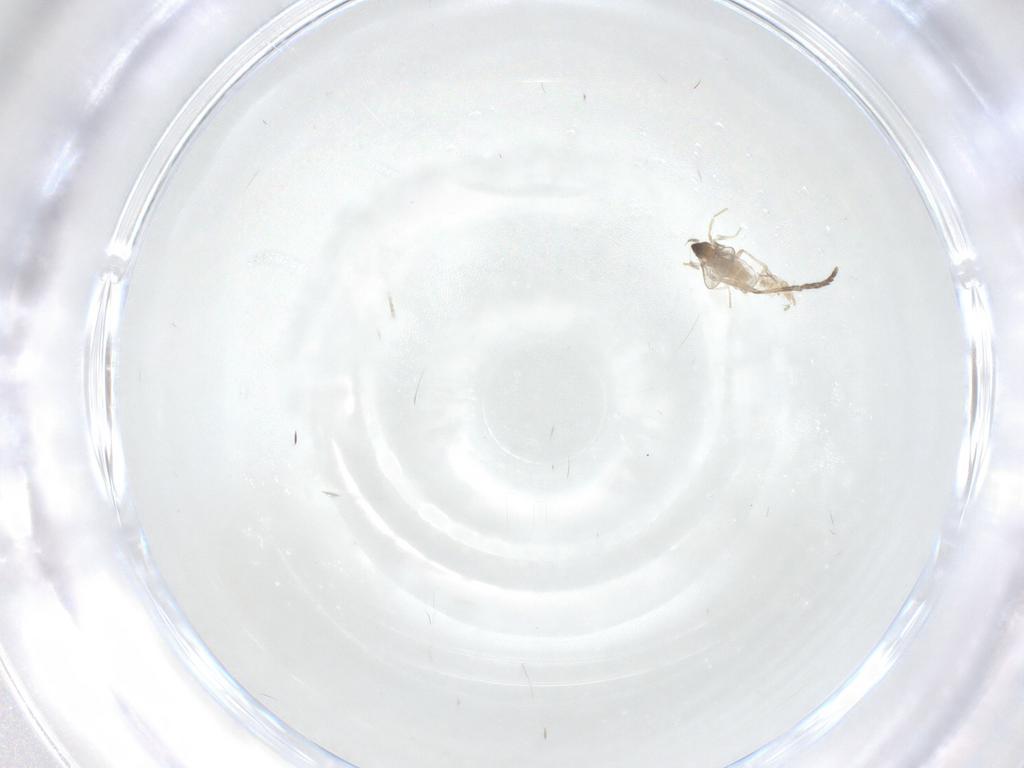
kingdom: Animalia
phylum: Arthropoda
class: Insecta
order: Diptera
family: Cecidomyiidae
